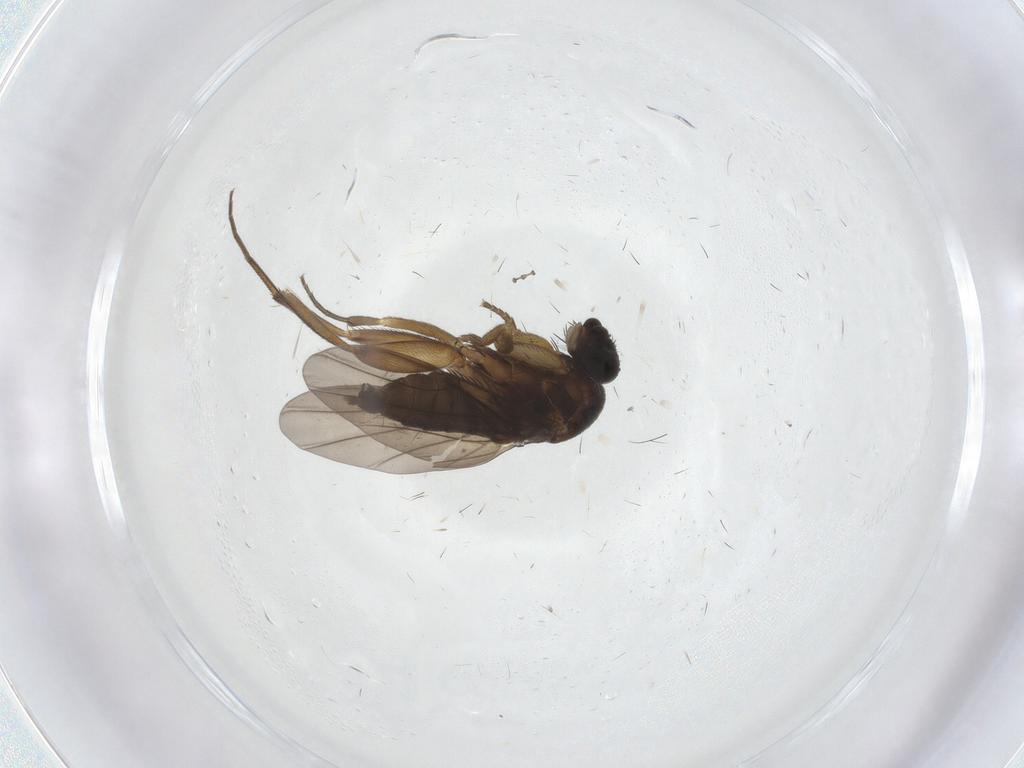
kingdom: Animalia
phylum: Arthropoda
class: Insecta
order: Diptera
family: Phoridae
